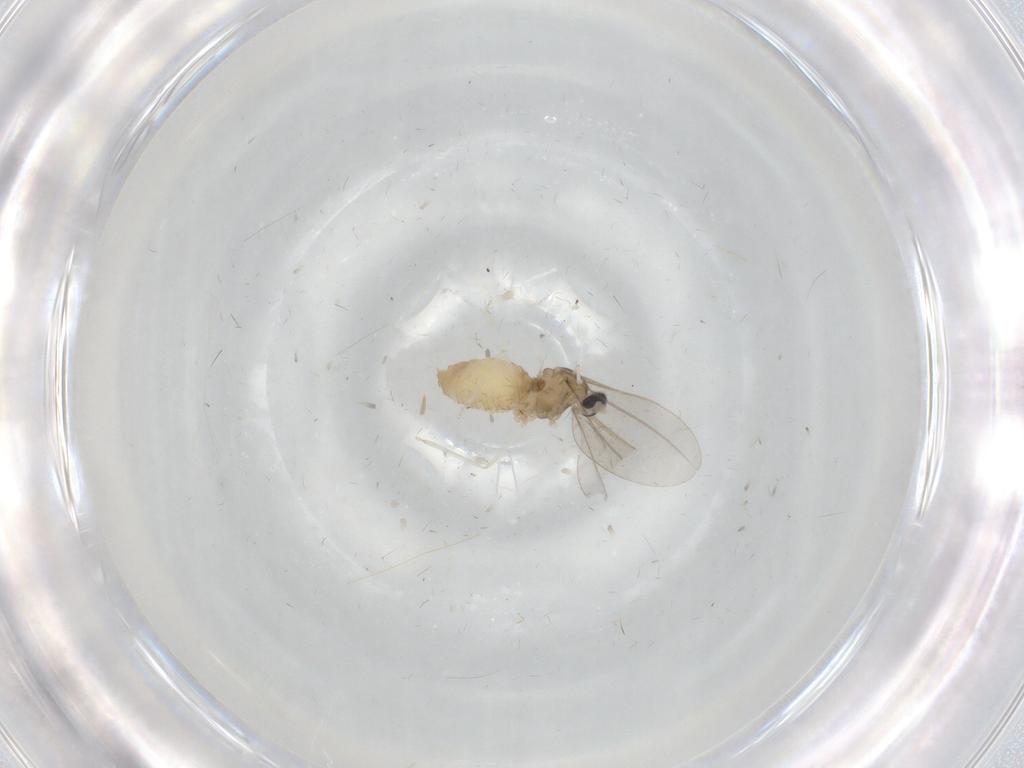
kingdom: Animalia
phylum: Arthropoda
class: Insecta
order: Diptera
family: Cecidomyiidae
